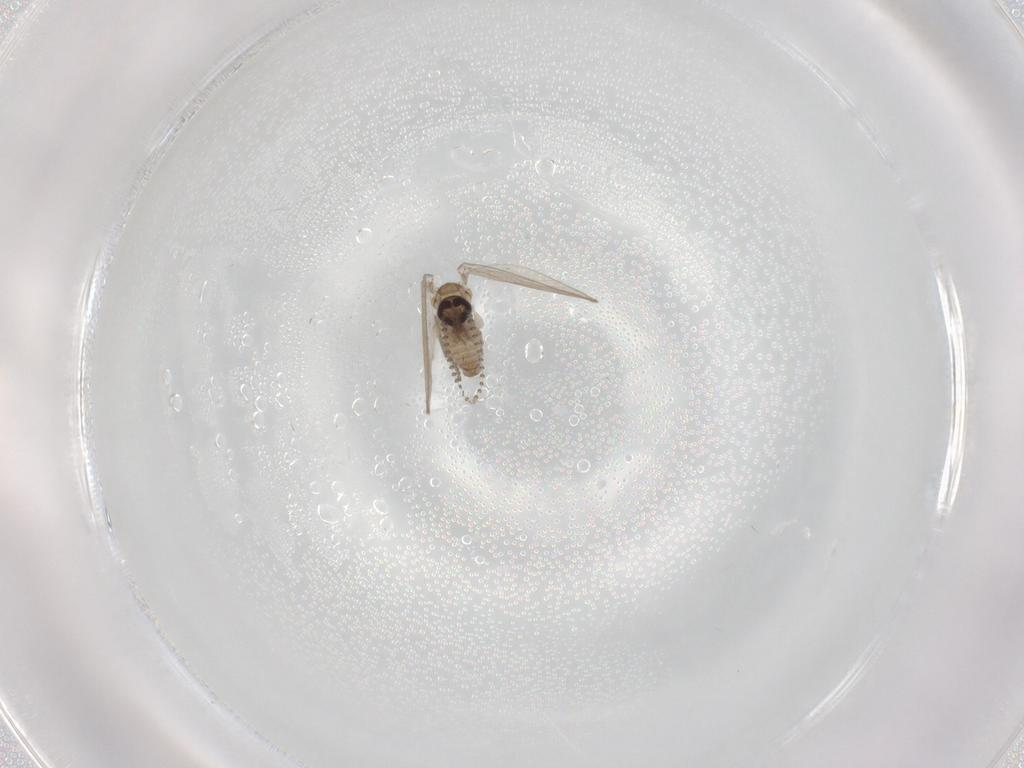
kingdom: Animalia
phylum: Arthropoda
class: Insecta
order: Diptera
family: Psychodidae
